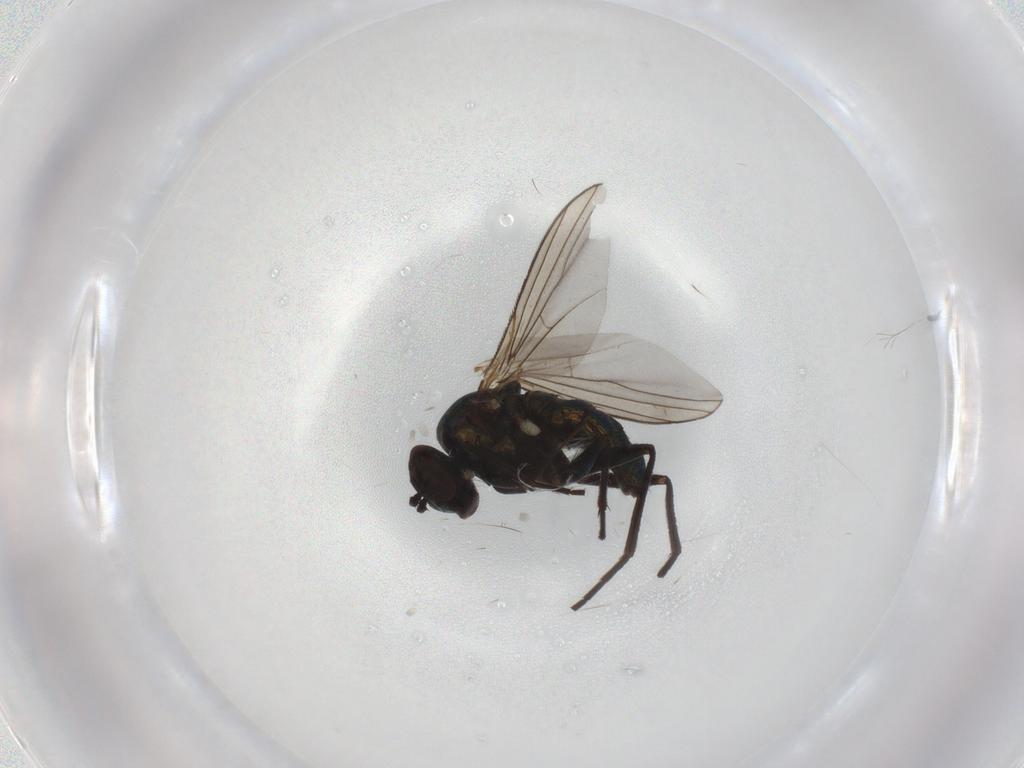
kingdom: Animalia
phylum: Arthropoda
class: Insecta
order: Diptera
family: Dolichopodidae
